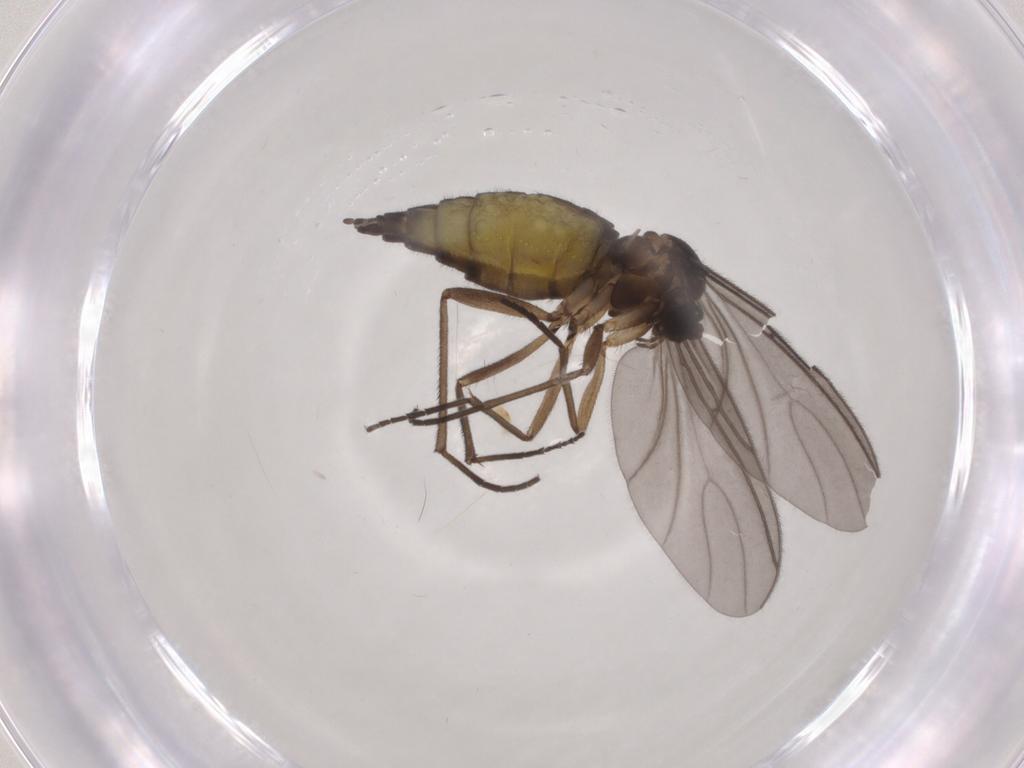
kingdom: Animalia
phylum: Arthropoda
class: Insecta
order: Diptera
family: Sciaridae
